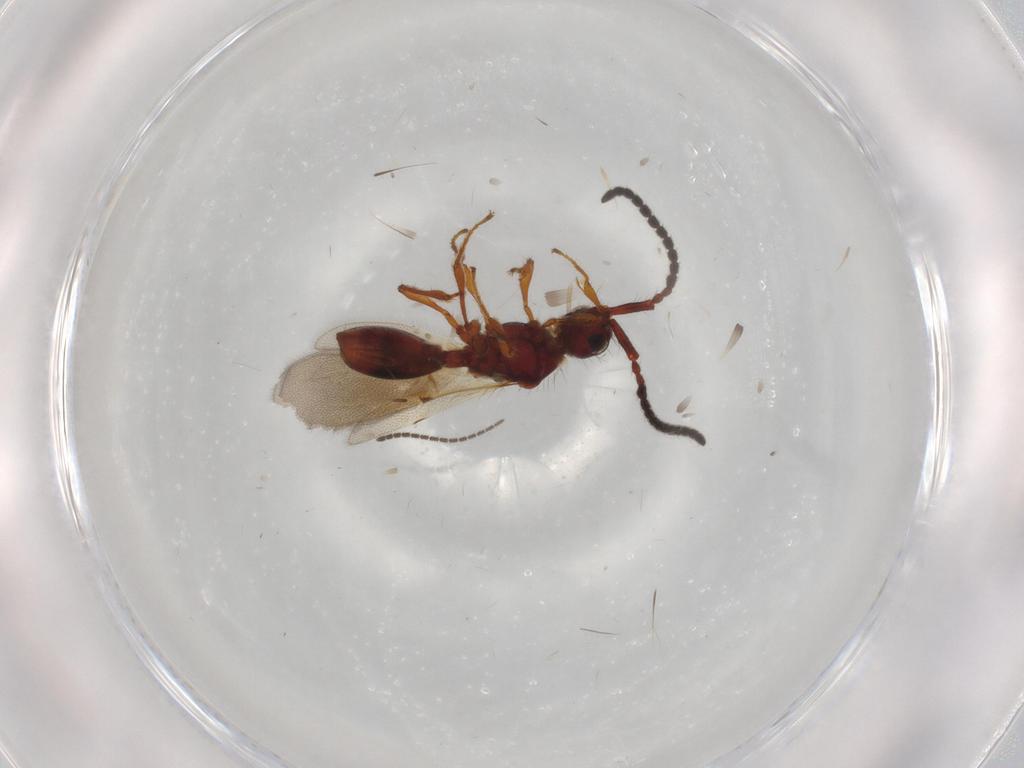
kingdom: Animalia
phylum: Arthropoda
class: Insecta
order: Hymenoptera
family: Diapriidae
